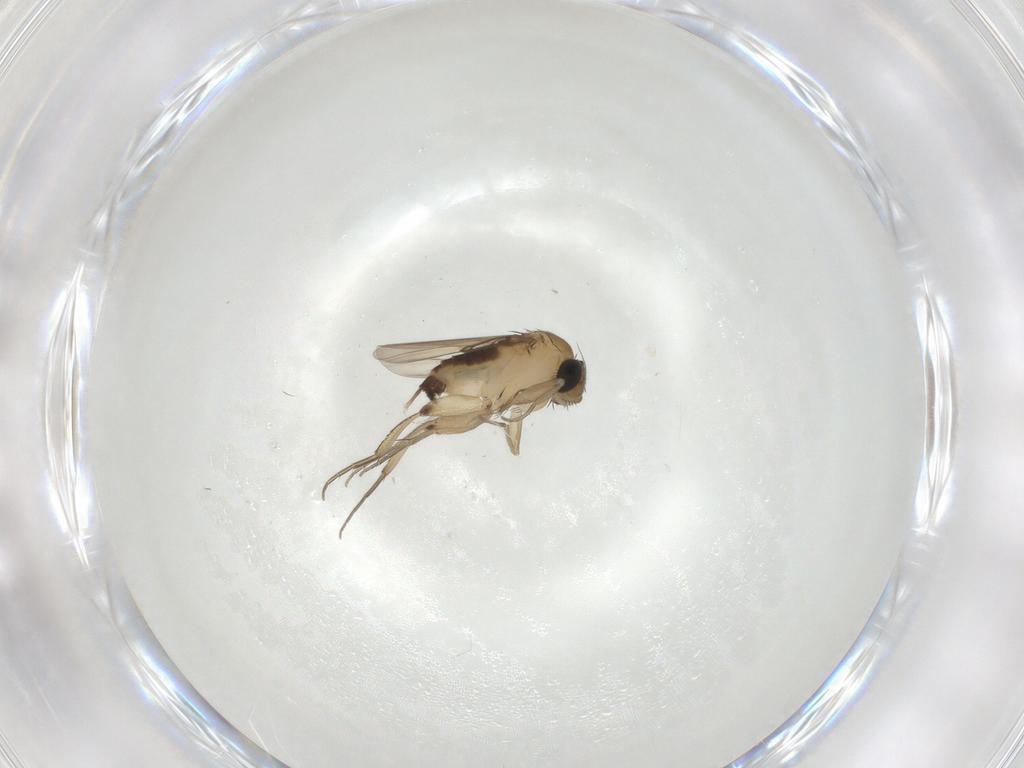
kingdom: Animalia
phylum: Arthropoda
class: Insecta
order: Diptera
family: Phoridae
